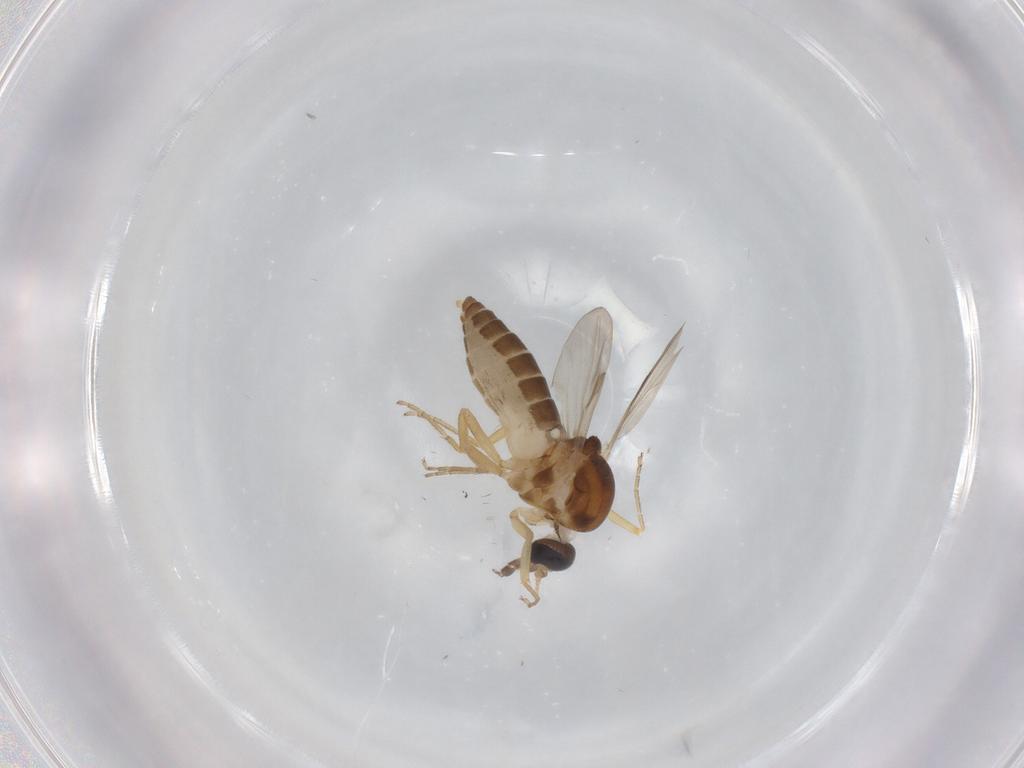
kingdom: Animalia
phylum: Arthropoda
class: Insecta
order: Diptera
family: Ceratopogonidae
